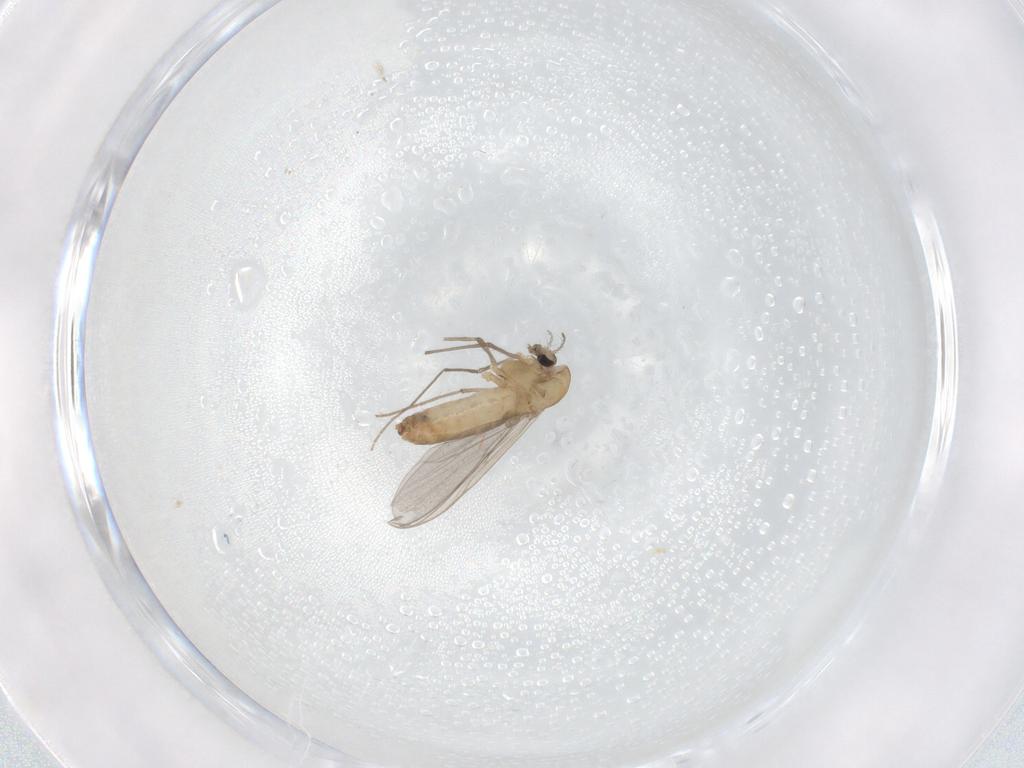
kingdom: Animalia
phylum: Arthropoda
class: Insecta
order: Diptera
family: Chironomidae
